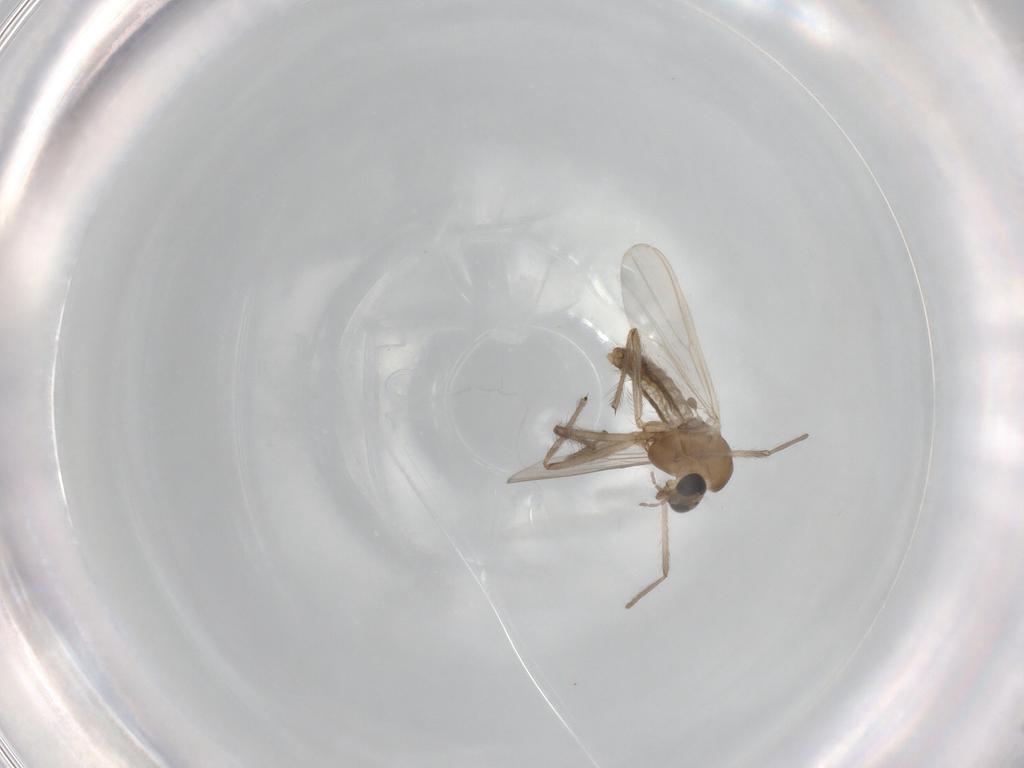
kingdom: Animalia
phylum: Arthropoda
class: Insecta
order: Diptera
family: Chironomidae
